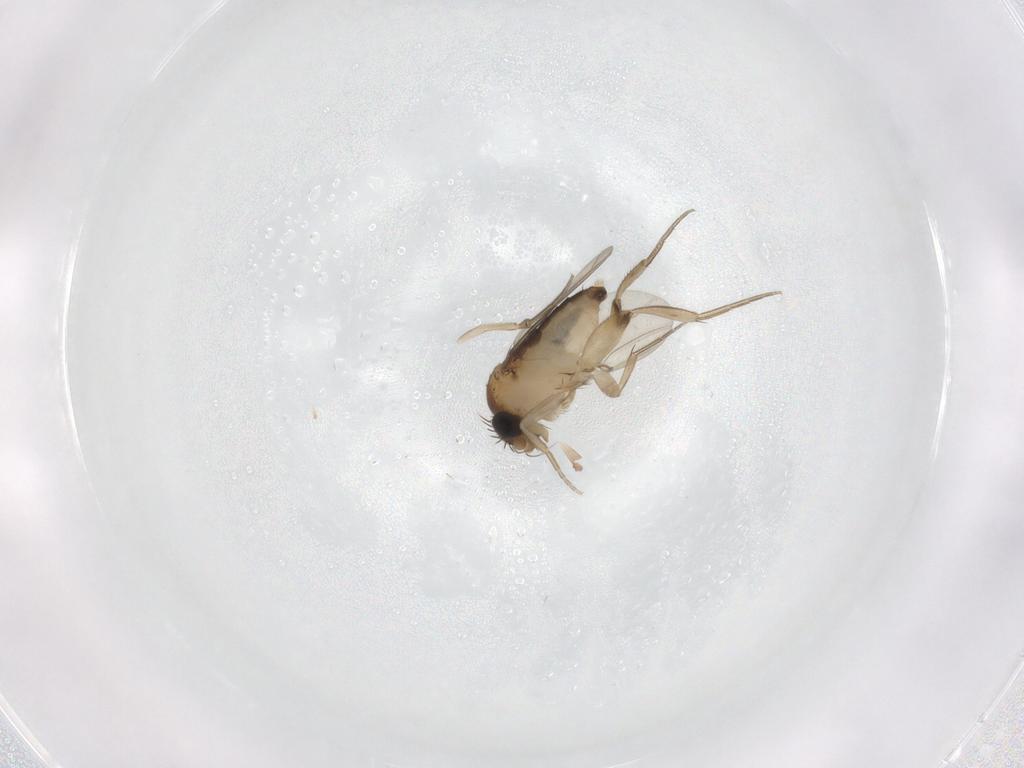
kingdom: Animalia
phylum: Arthropoda
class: Insecta
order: Diptera
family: Phoridae
